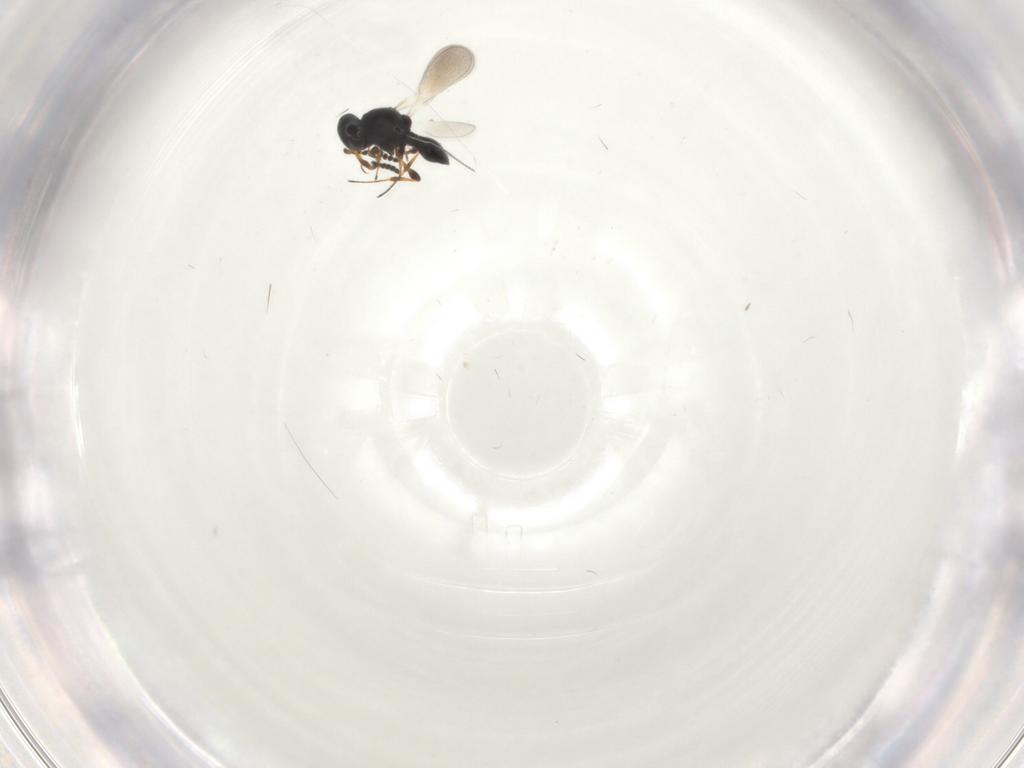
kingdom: Animalia
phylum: Arthropoda
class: Insecta
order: Hymenoptera
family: Platygastridae
